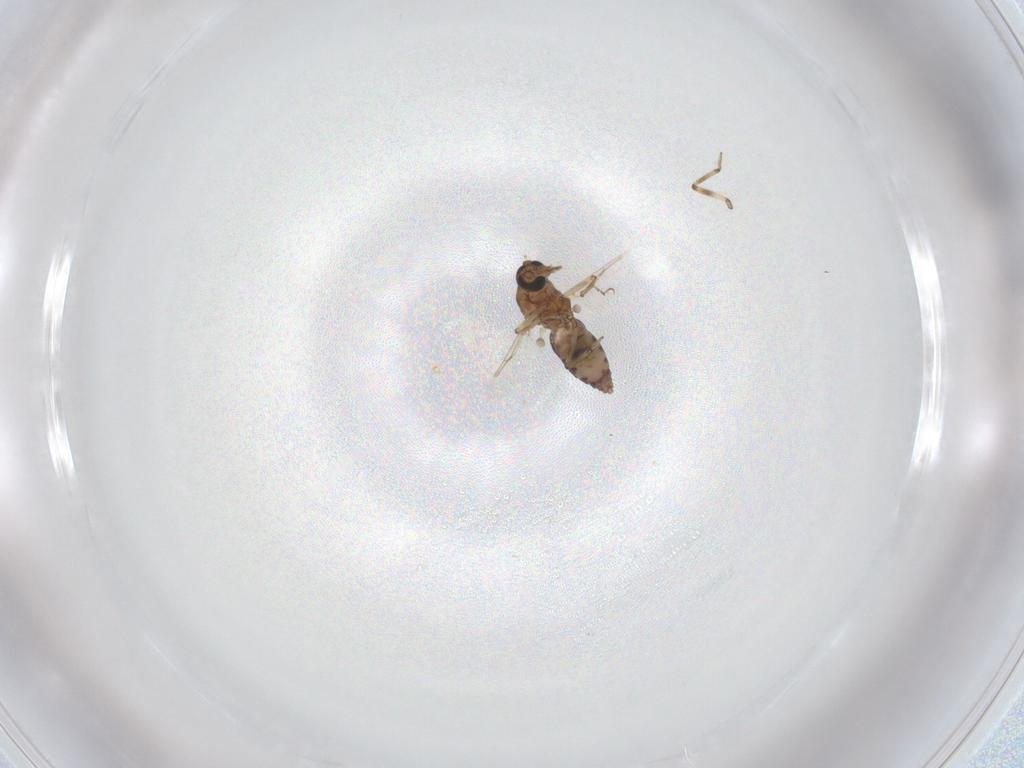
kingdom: Animalia
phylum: Arthropoda
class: Insecta
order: Diptera
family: Ceratopogonidae
